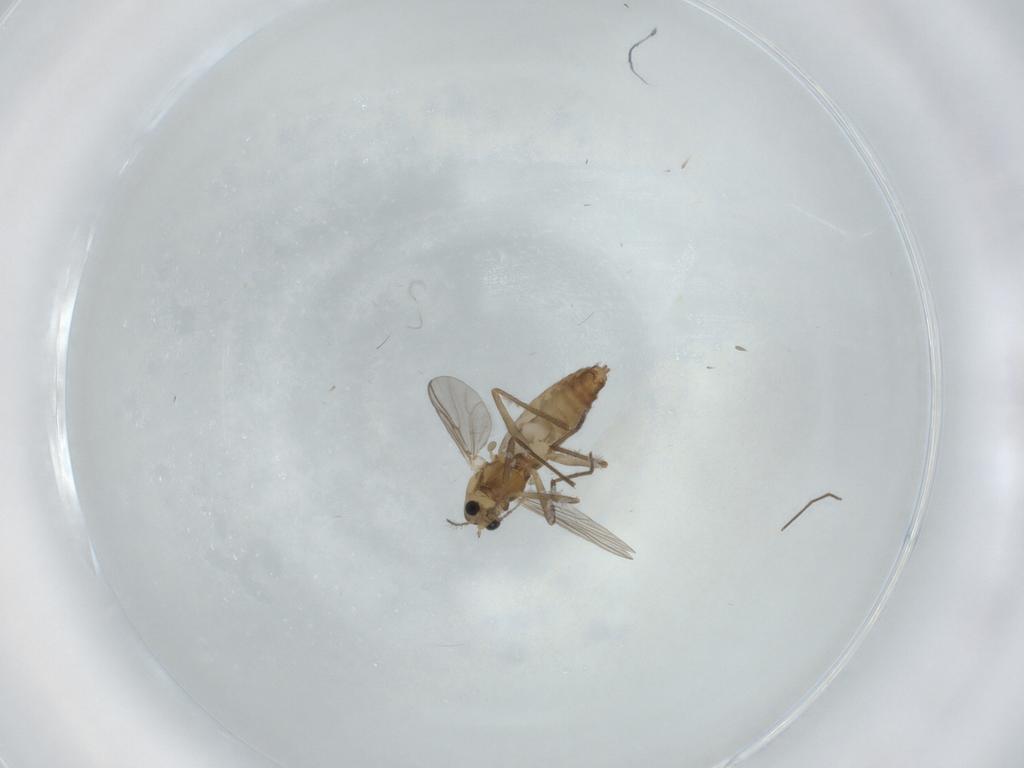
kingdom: Animalia
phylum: Arthropoda
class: Insecta
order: Diptera
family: Chironomidae
